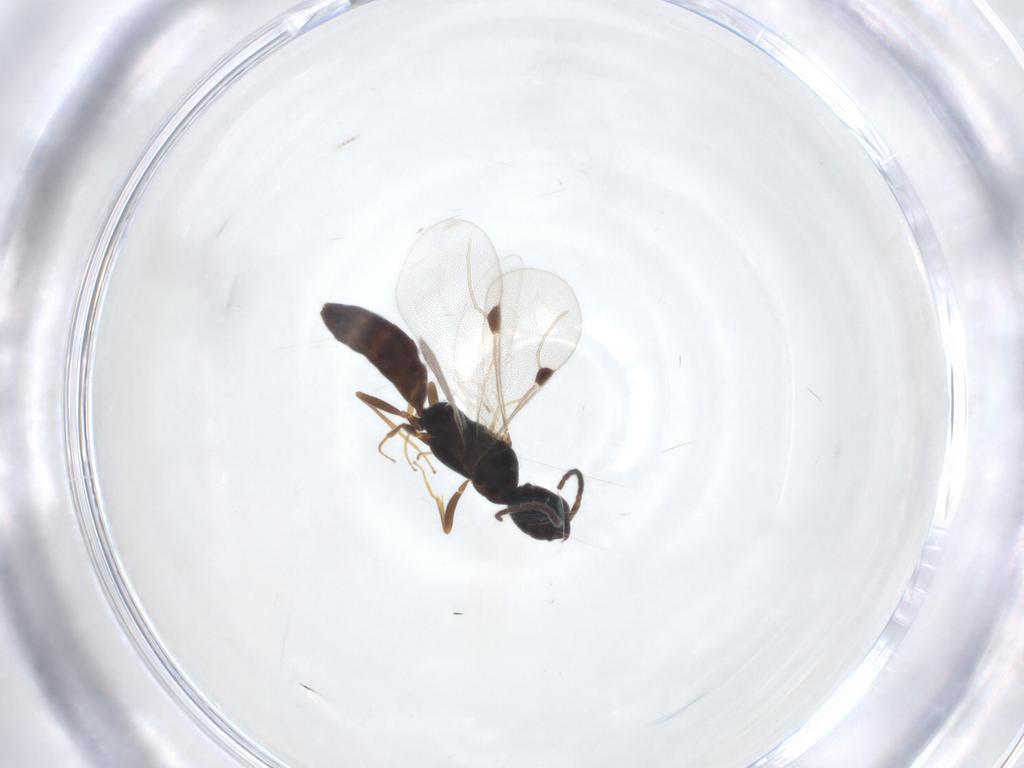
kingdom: Animalia
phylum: Arthropoda
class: Insecta
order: Hymenoptera
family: Bethylidae
